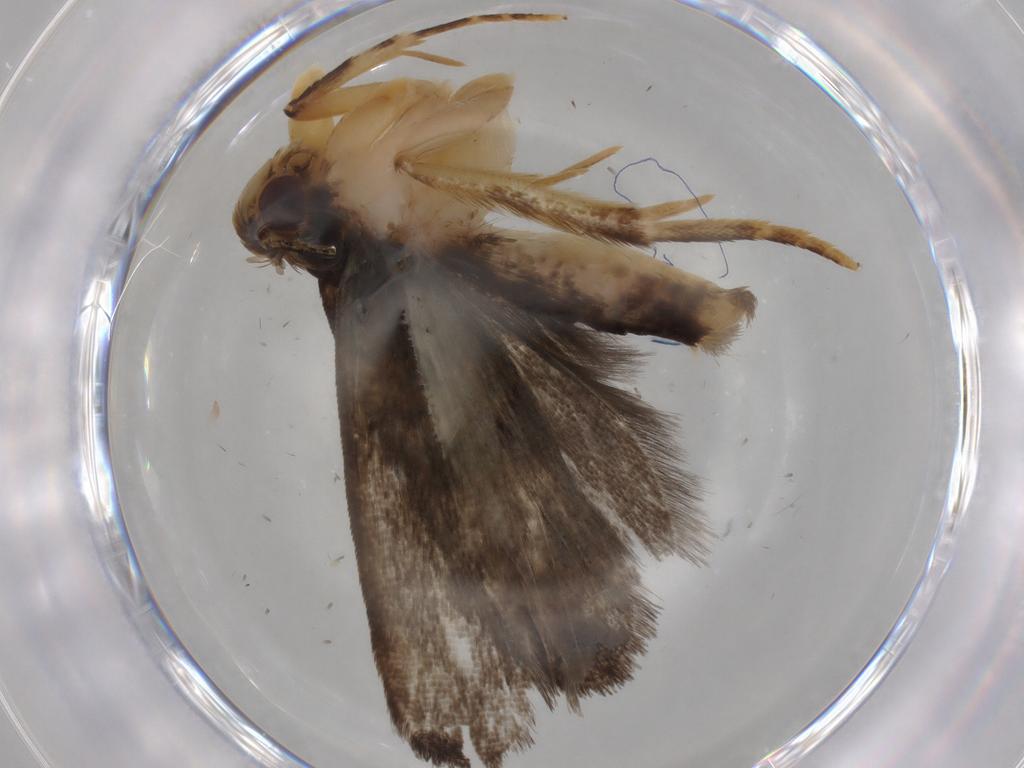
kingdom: Animalia
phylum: Arthropoda
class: Insecta
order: Lepidoptera
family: Gelechiidae
